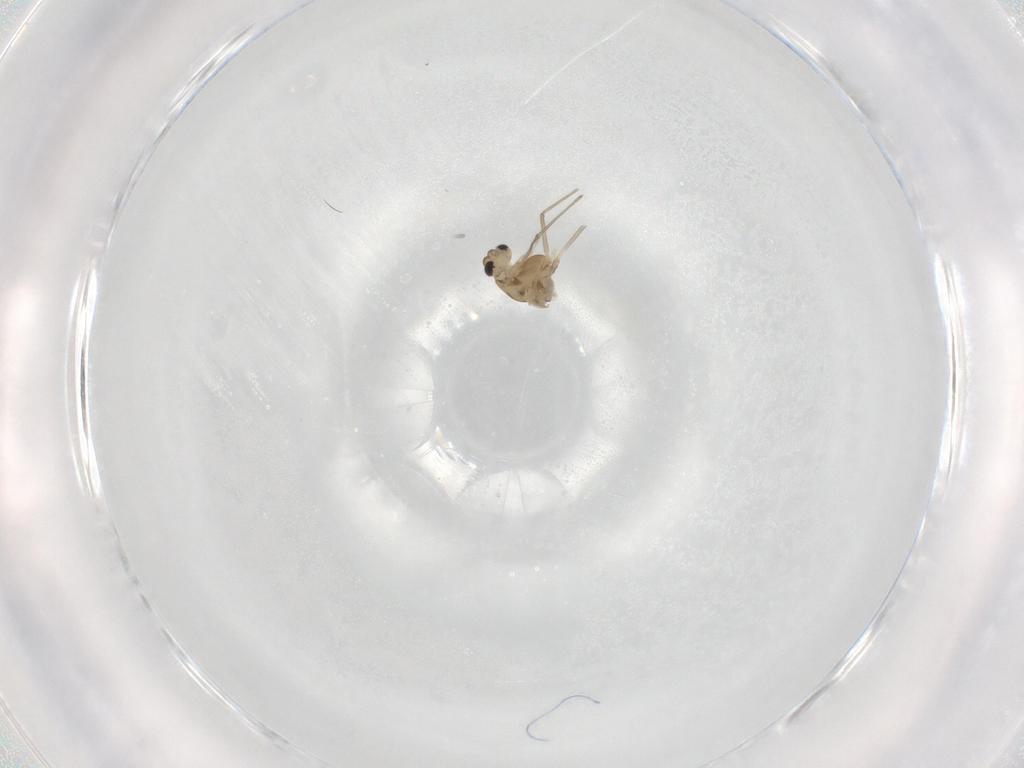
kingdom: Animalia
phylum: Arthropoda
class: Insecta
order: Diptera
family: Chironomidae
